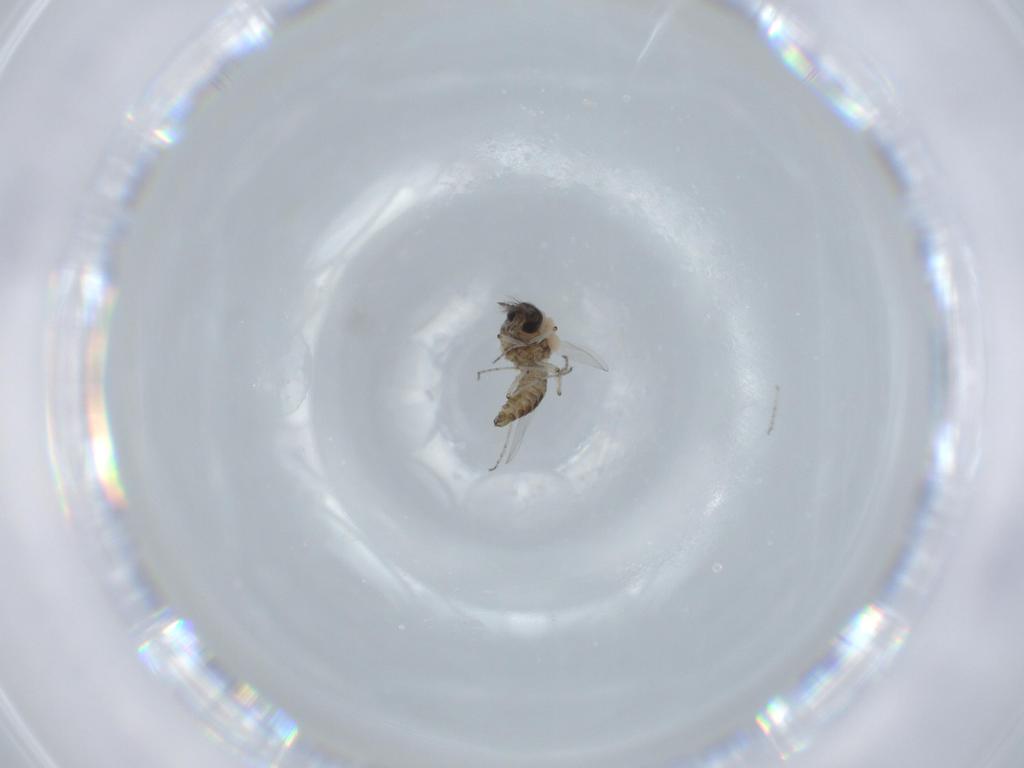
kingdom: Animalia
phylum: Arthropoda
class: Insecta
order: Diptera
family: Ceratopogonidae
